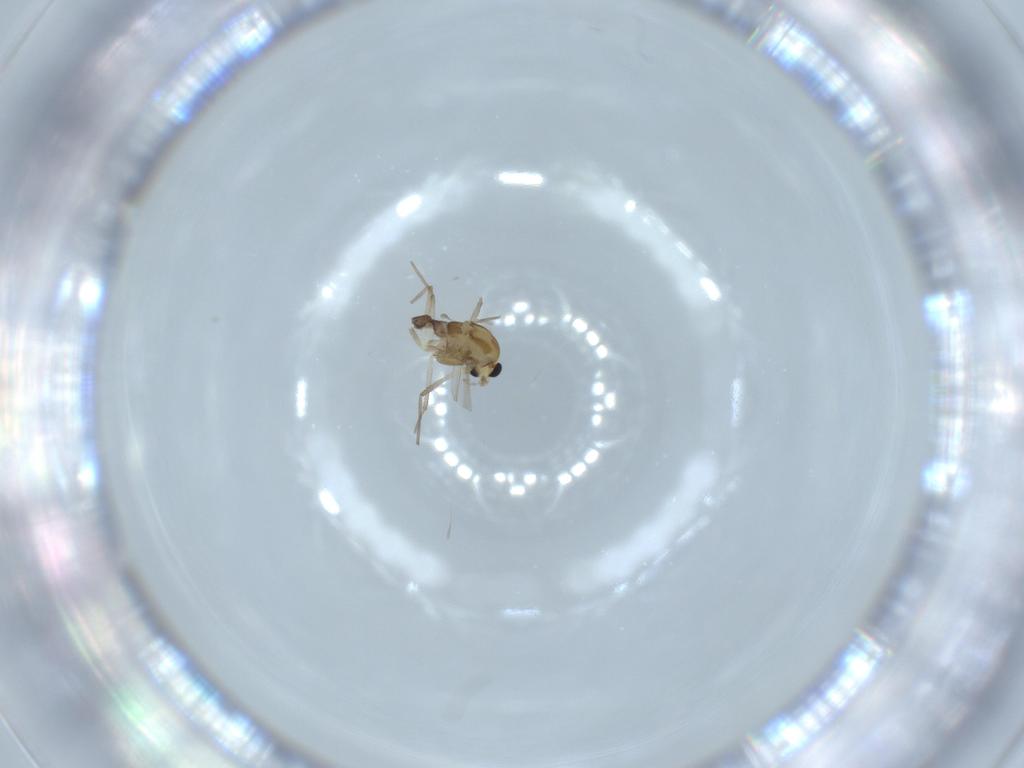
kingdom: Animalia
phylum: Arthropoda
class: Insecta
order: Diptera
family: Chironomidae
